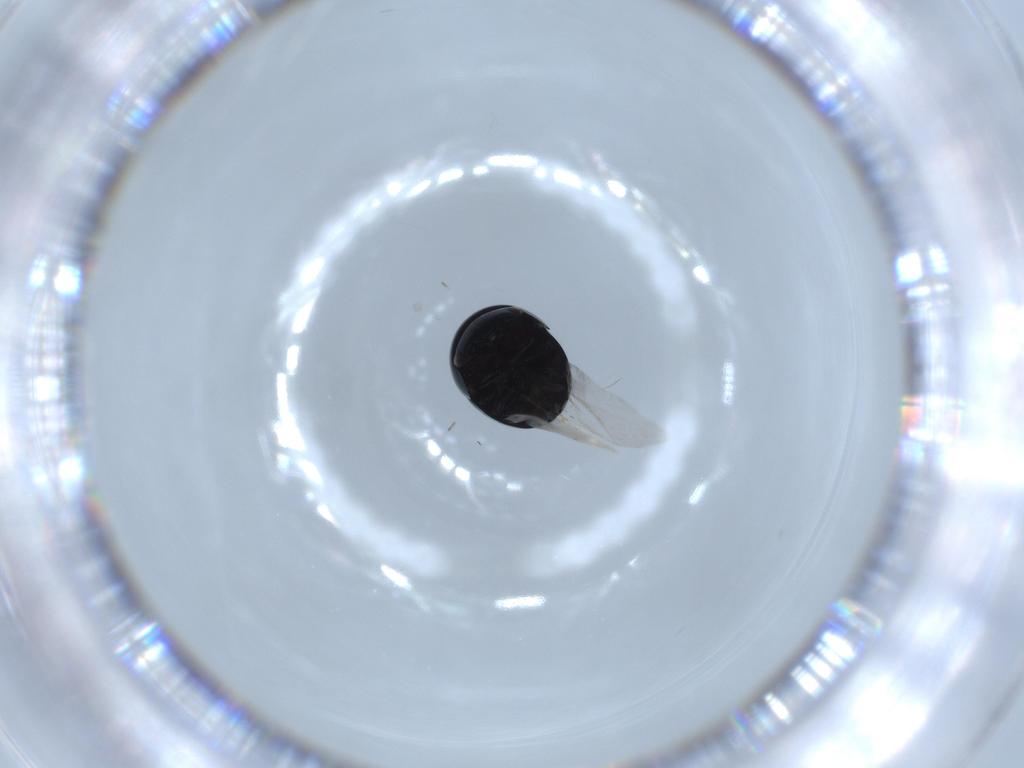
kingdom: Animalia
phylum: Arthropoda
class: Insecta
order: Coleoptera
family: Cybocephalidae
